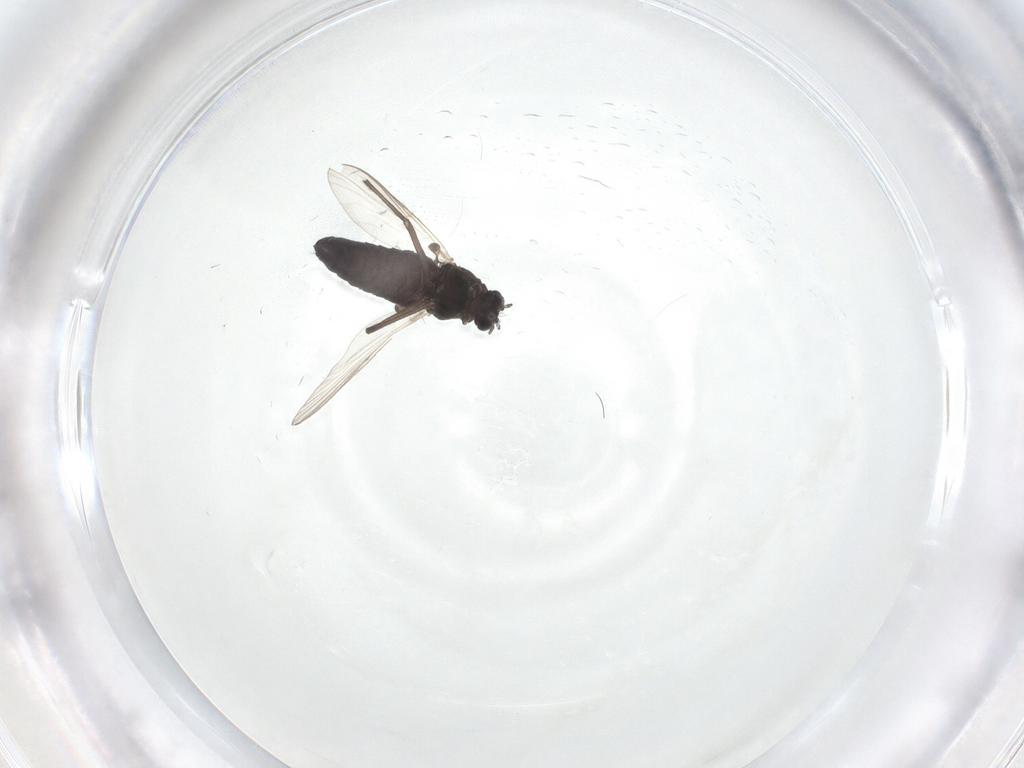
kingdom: Animalia
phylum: Arthropoda
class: Insecta
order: Diptera
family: Chironomidae
